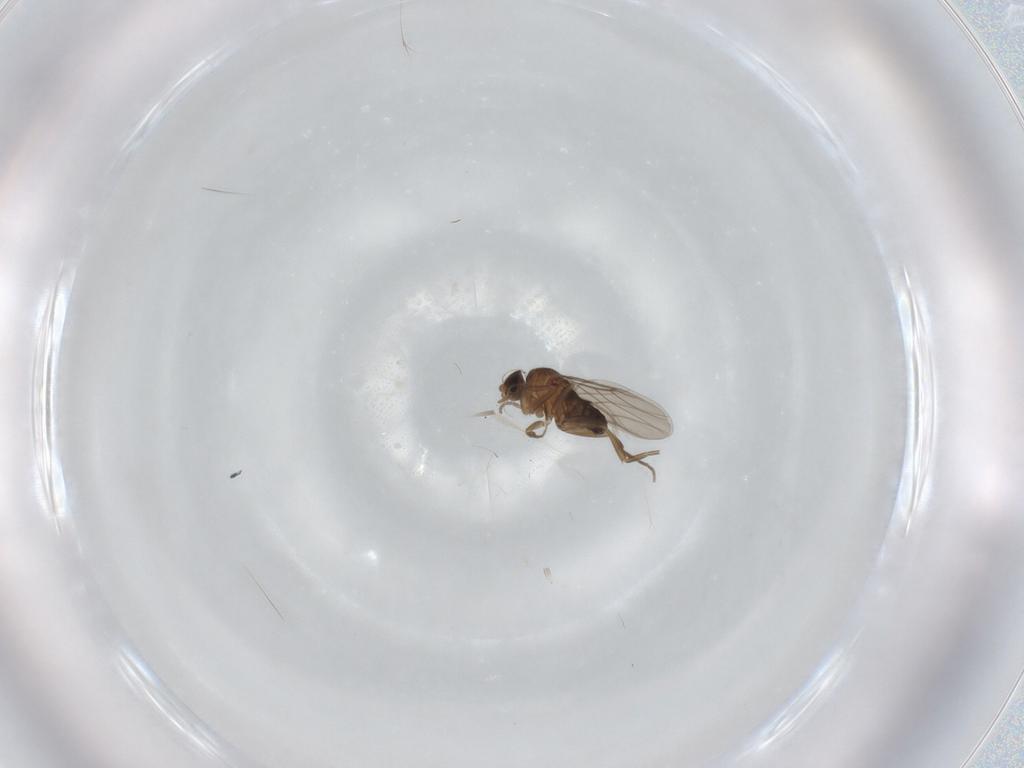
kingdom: Animalia
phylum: Arthropoda
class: Insecta
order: Diptera
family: Phoridae
